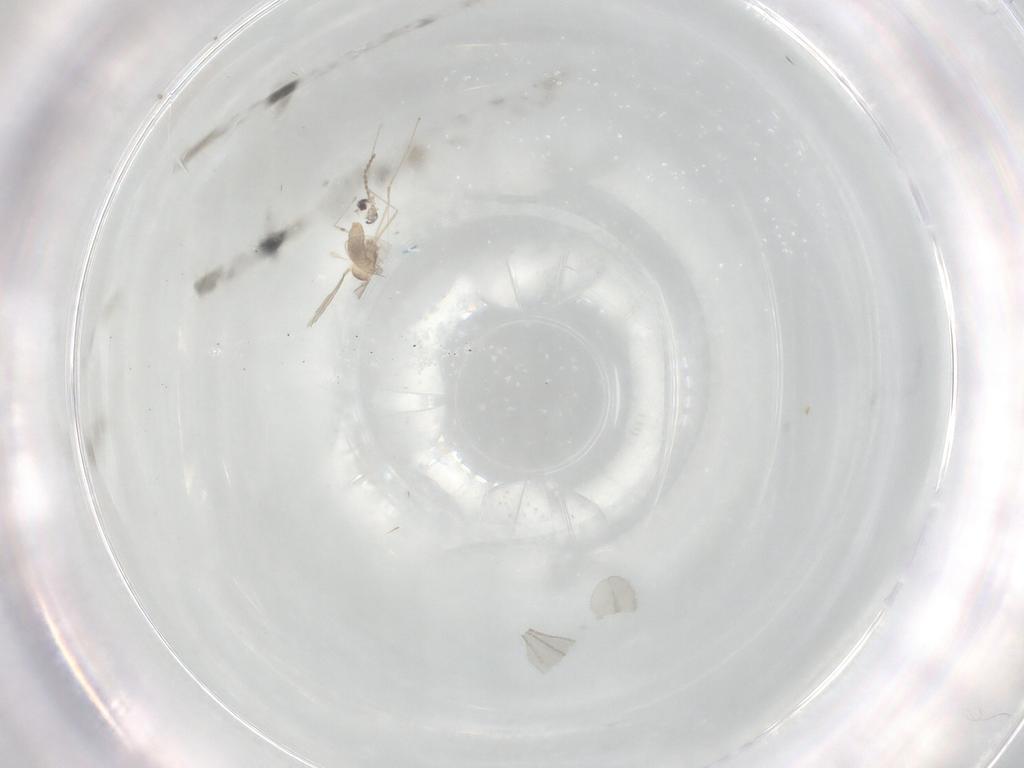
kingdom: Animalia
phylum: Arthropoda
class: Insecta
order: Diptera
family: Cecidomyiidae
